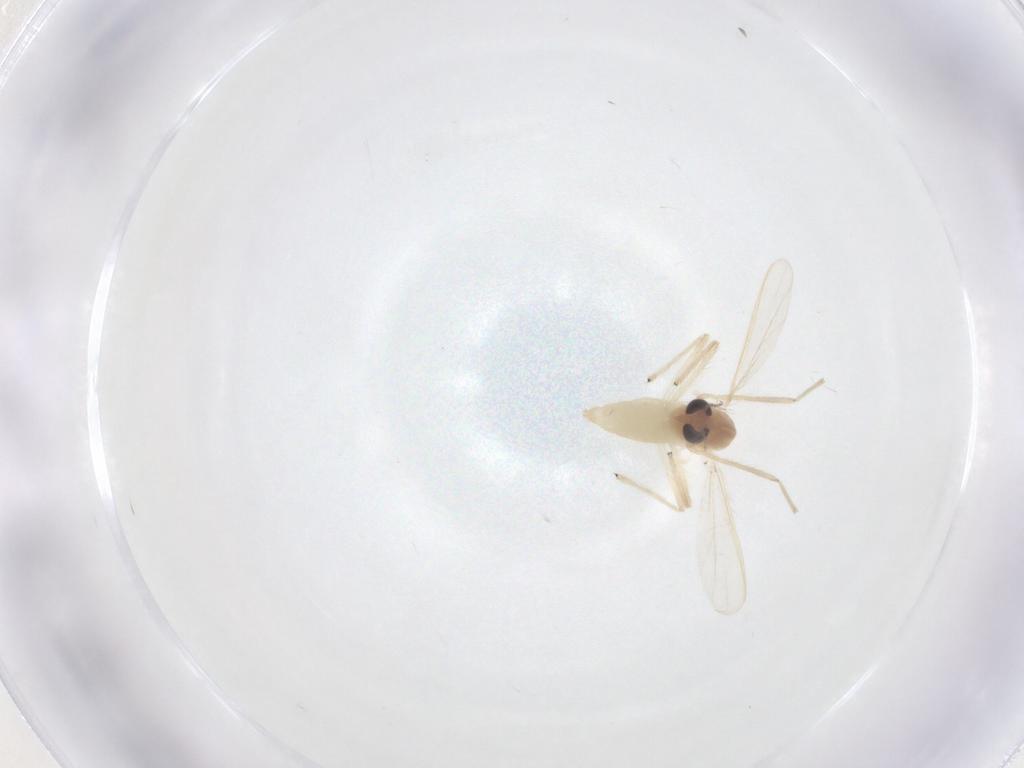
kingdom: Animalia
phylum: Arthropoda
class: Insecta
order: Diptera
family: Chironomidae
